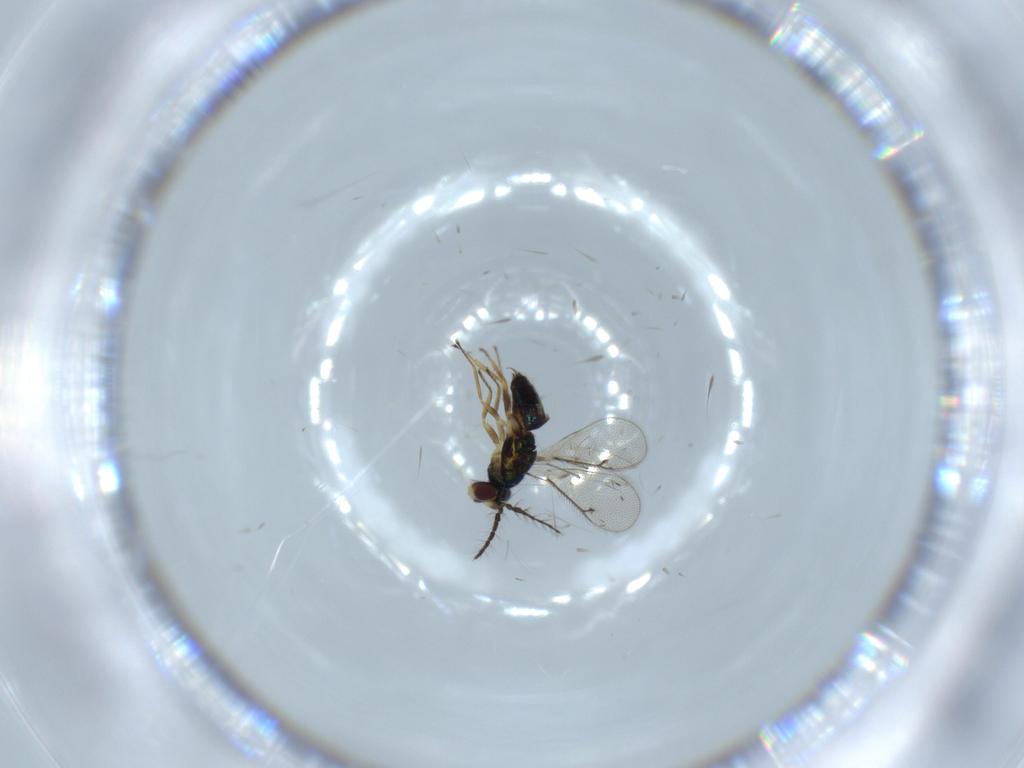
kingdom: Animalia
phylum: Arthropoda
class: Insecta
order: Hymenoptera
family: Eulophidae
